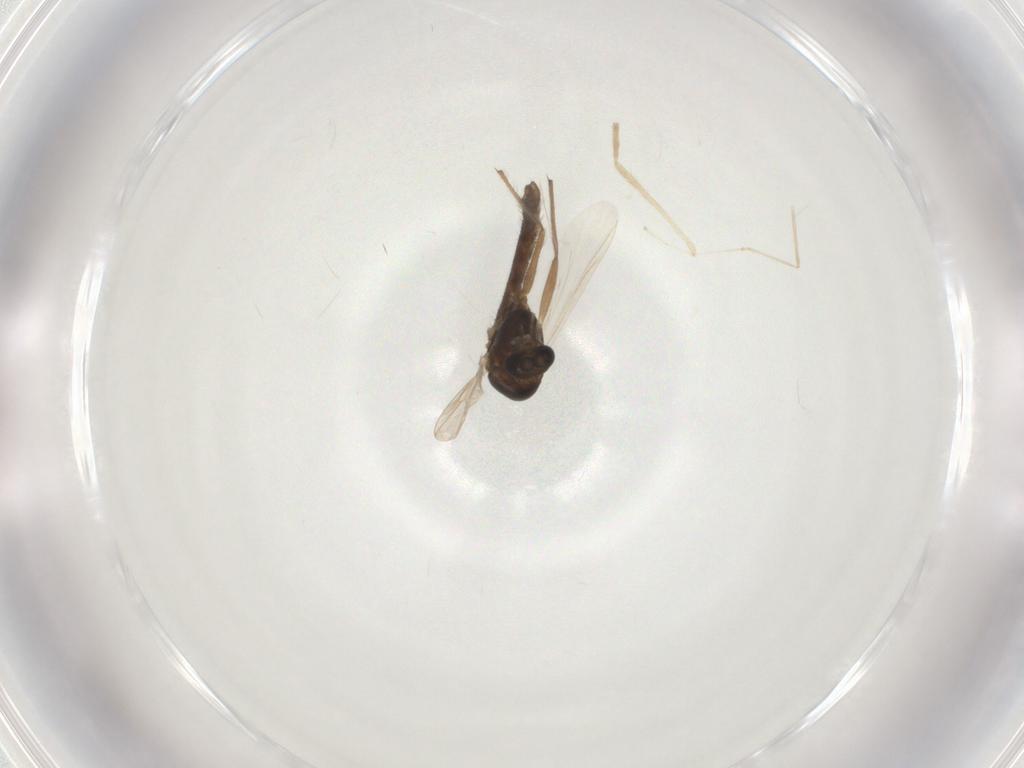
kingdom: Animalia
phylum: Arthropoda
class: Insecta
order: Diptera
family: Chironomidae
